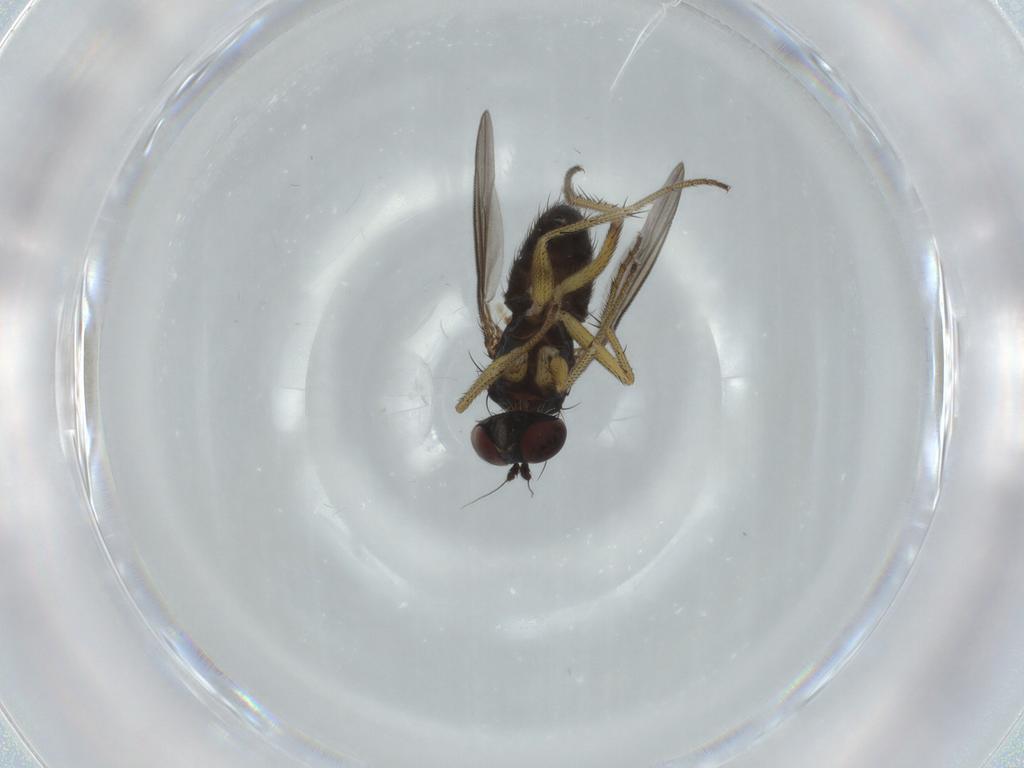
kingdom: Animalia
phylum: Arthropoda
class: Insecta
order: Diptera
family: Dolichopodidae
